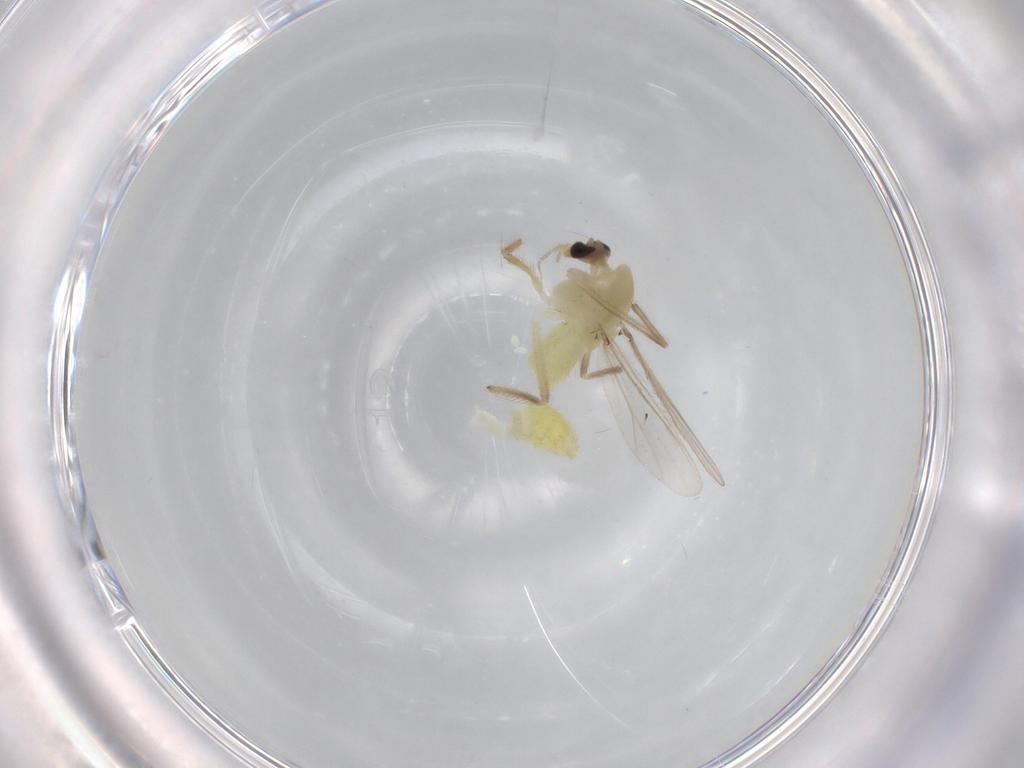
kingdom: Animalia
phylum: Arthropoda
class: Insecta
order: Diptera
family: Chironomidae
